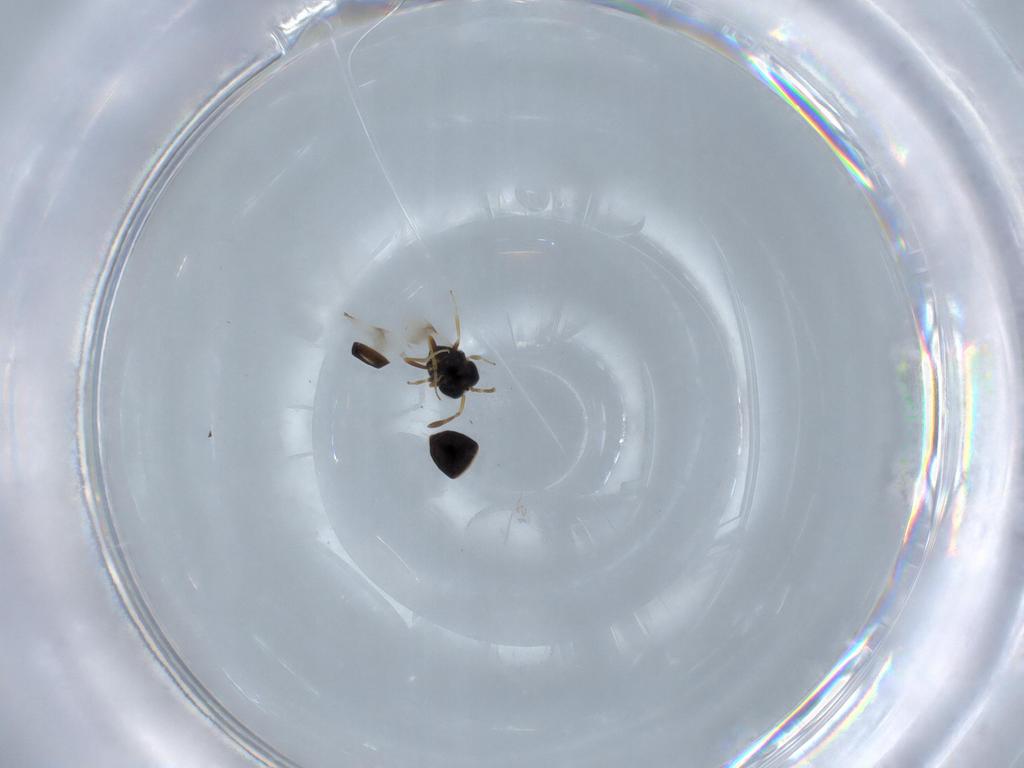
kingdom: Animalia
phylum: Arthropoda
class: Insecta
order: Hymenoptera
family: Scelionidae
